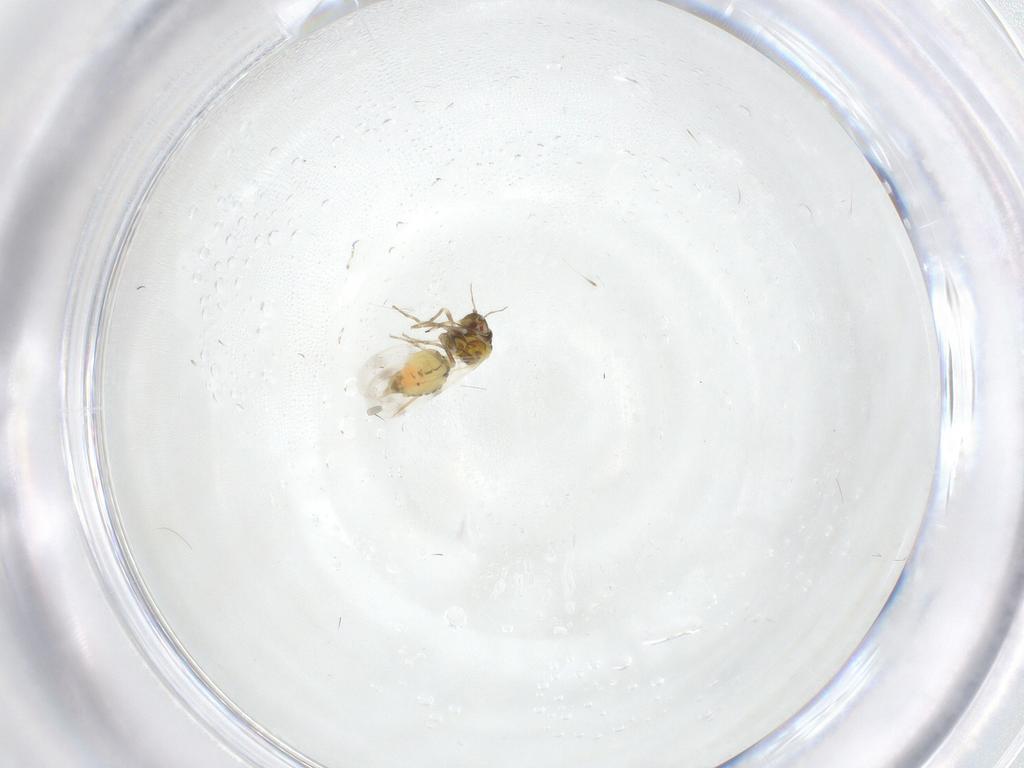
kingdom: Animalia
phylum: Arthropoda
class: Insecta
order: Hemiptera
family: Aleyrodidae
